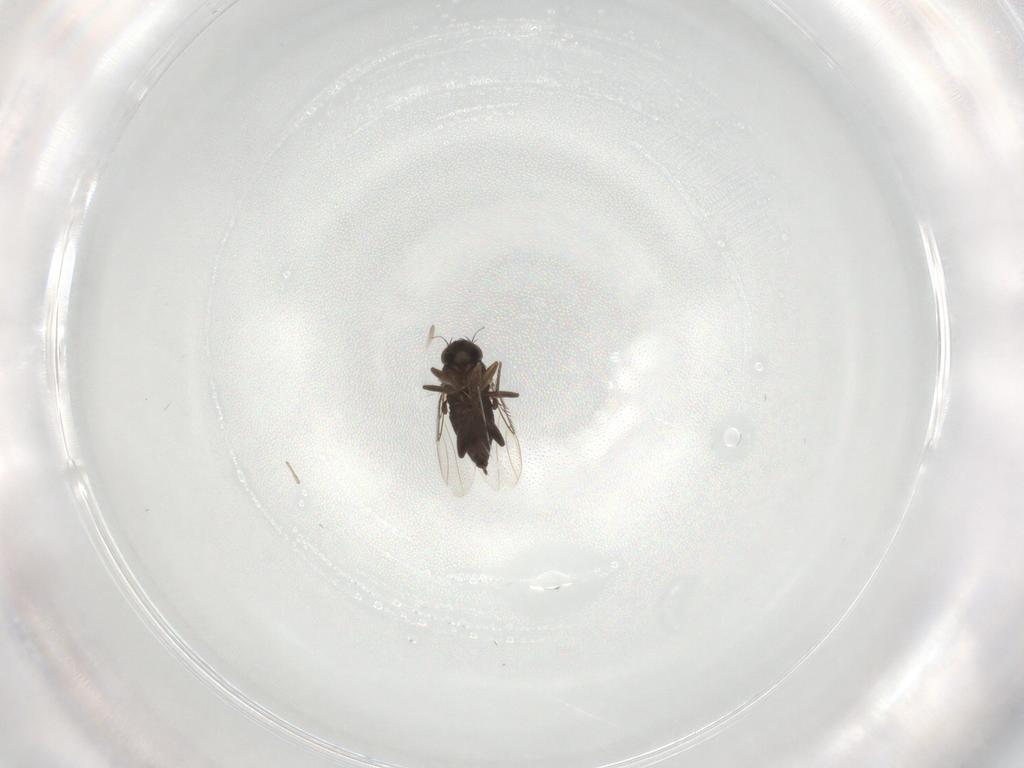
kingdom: Animalia
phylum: Arthropoda
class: Insecta
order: Diptera
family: Phoridae
